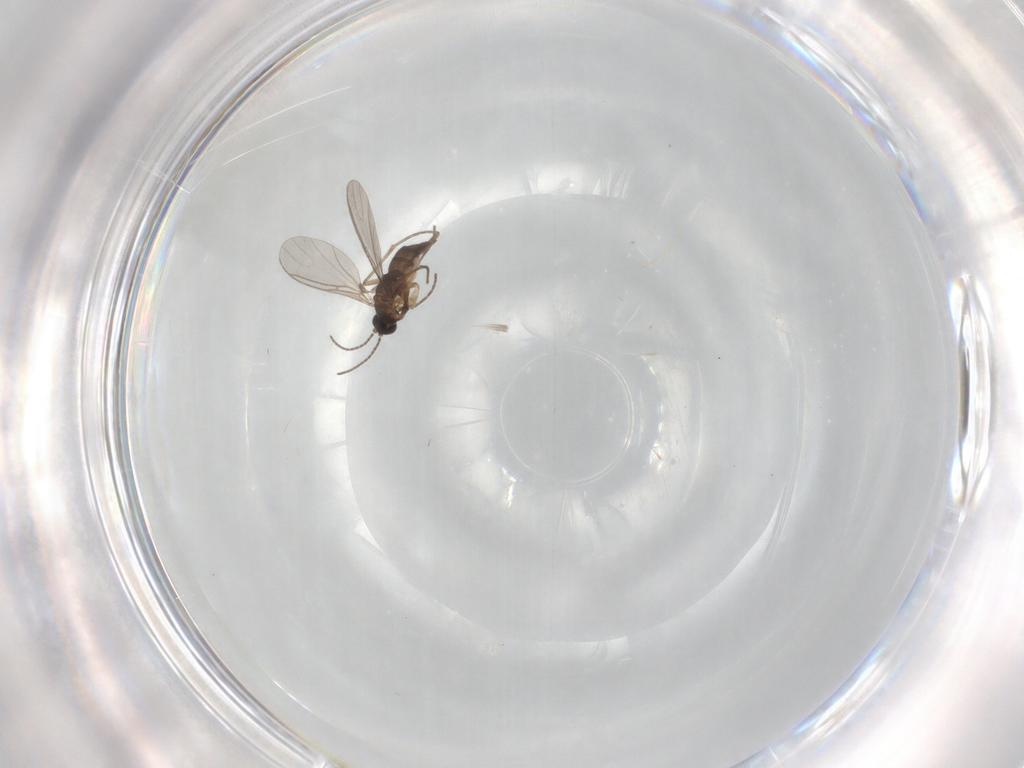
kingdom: Animalia
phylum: Arthropoda
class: Insecta
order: Diptera
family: Sciaridae
